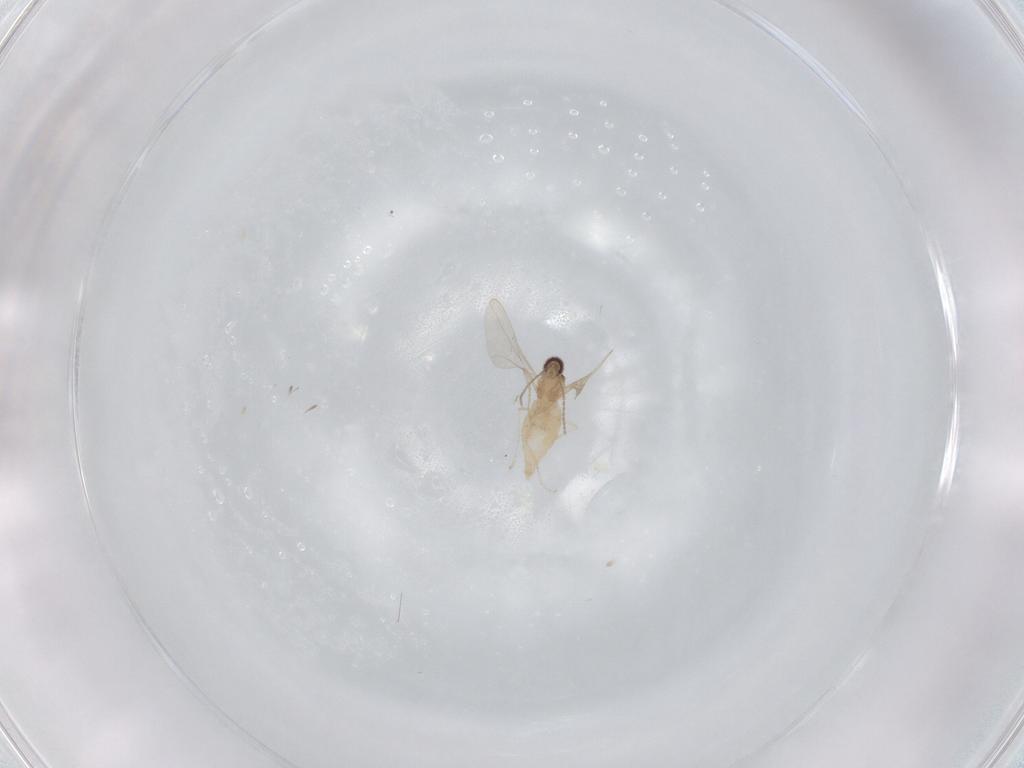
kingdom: Animalia
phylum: Arthropoda
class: Insecta
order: Diptera
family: Cecidomyiidae
